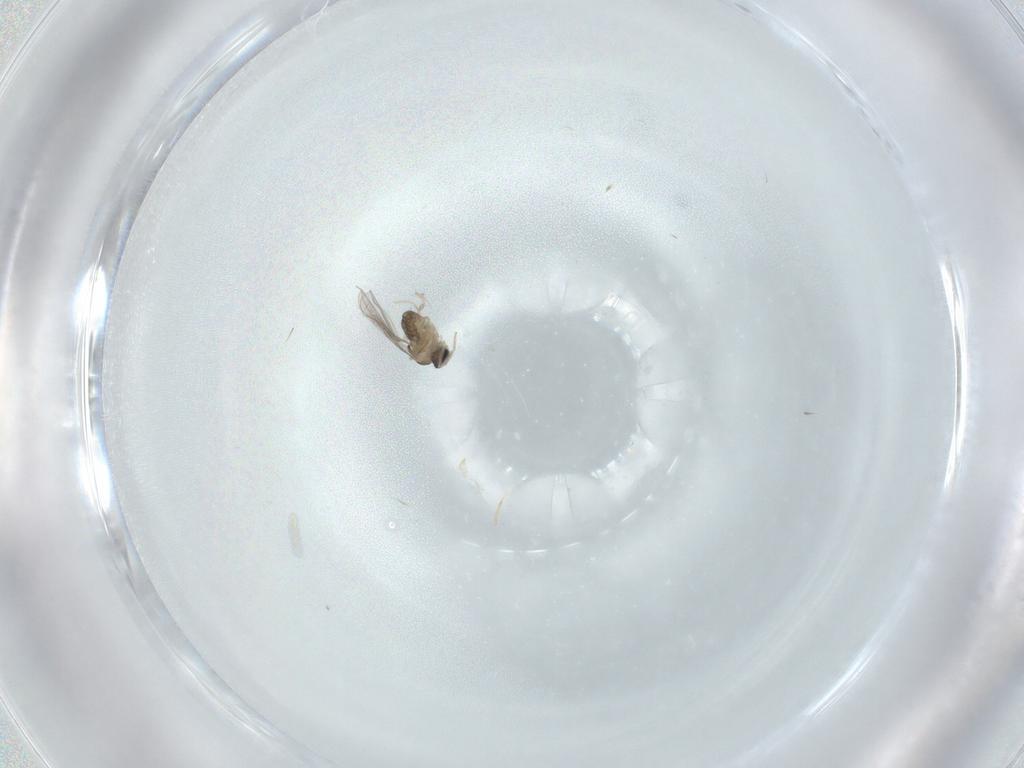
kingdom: Animalia
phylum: Arthropoda
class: Insecta
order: Diptera
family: Cecidomyiidae
